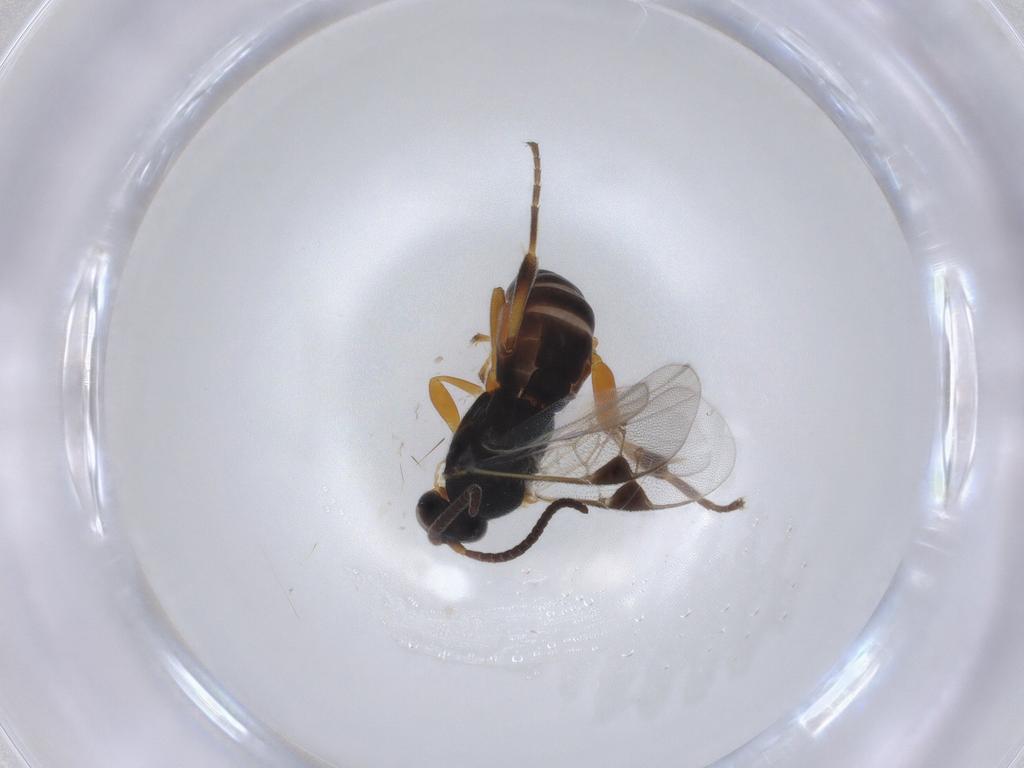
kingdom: Animalia
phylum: Arthropoda
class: Insecta
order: Hymenoptera
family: Braconidae
